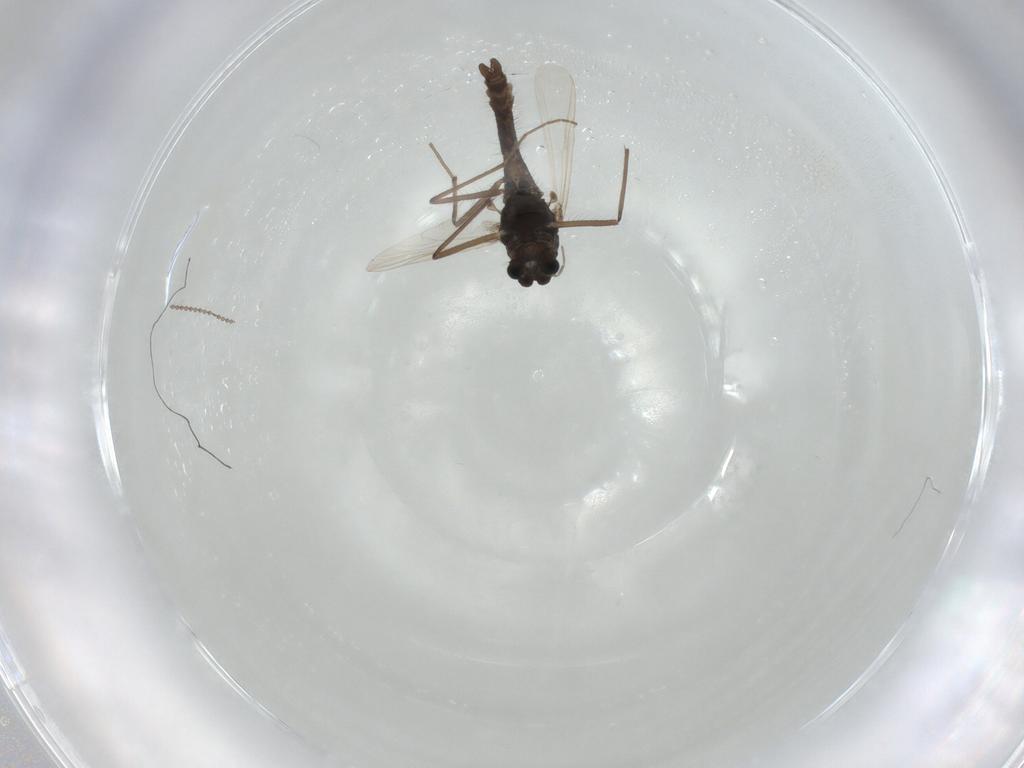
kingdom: Animalia
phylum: Arthropoda
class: Insecta
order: Diptera
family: Chironomidae
